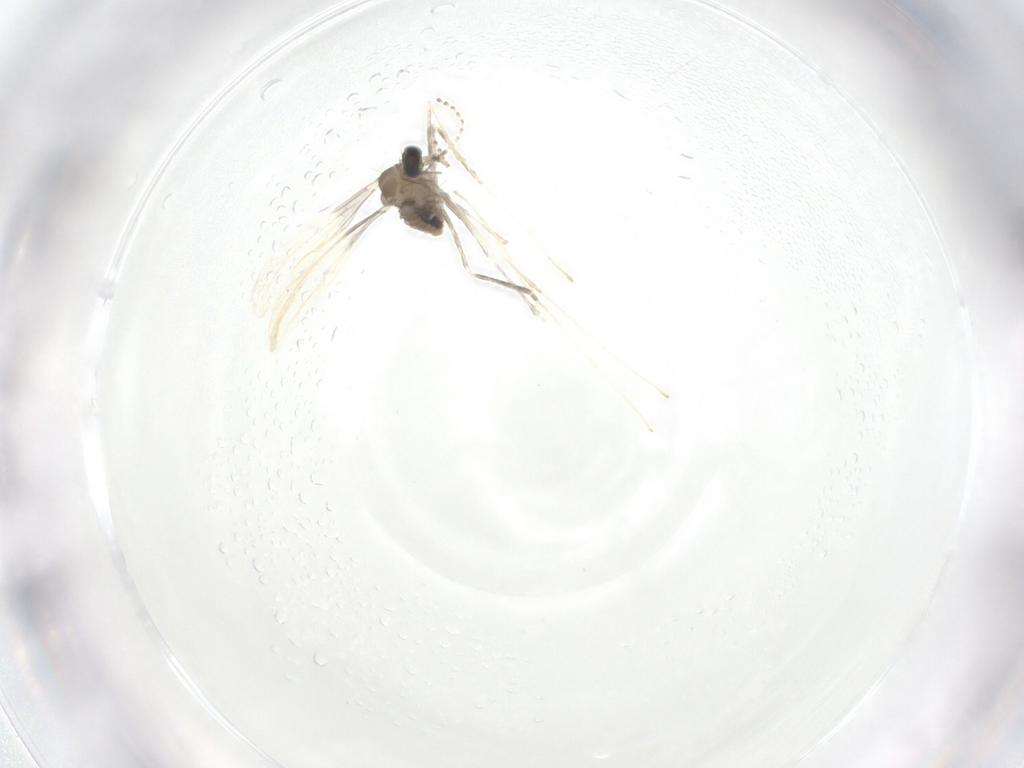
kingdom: Animalia
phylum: Arthropoda
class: Insecta
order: Diptera
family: Cecidomyiidae
